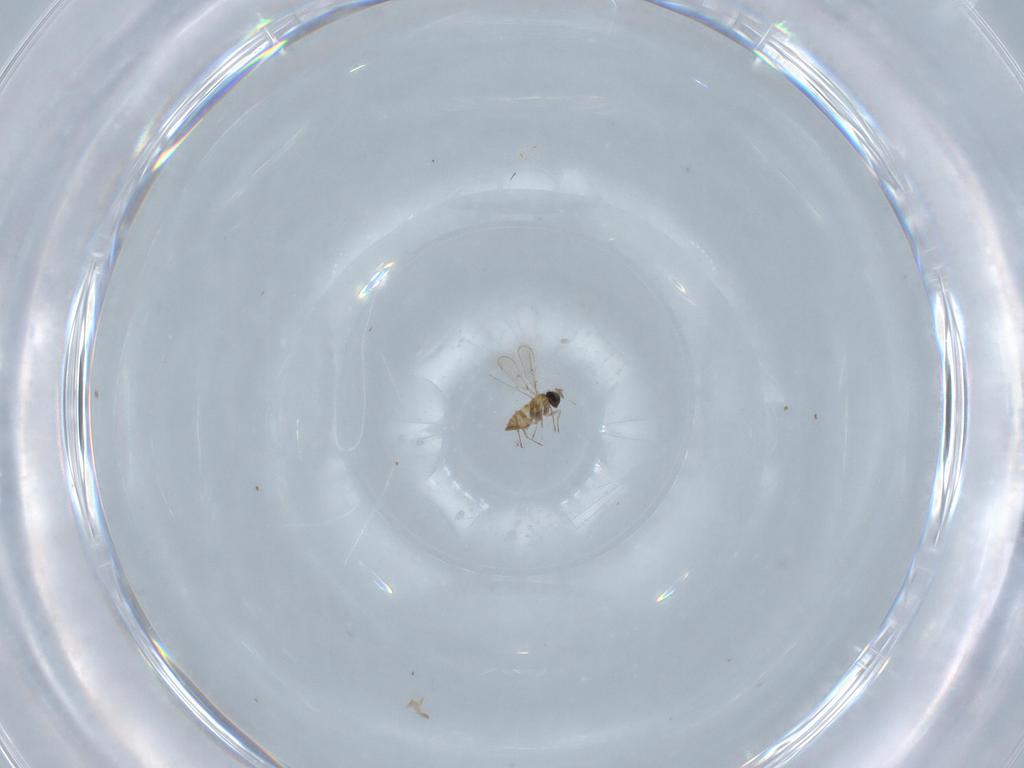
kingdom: Animalia
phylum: Arthropoda
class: Insecta
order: Hymenoptera
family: Trichogrammatidae
